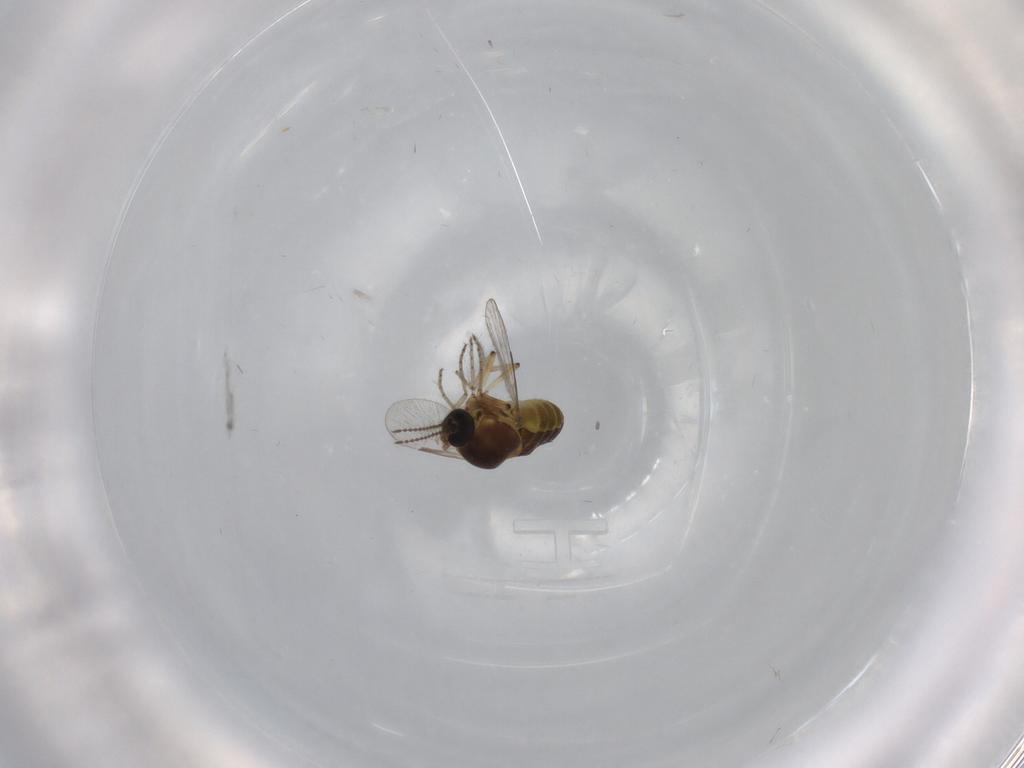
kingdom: Animalia
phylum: Arthropoda
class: Insecta
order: Diptera
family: Ceratopogonidae
